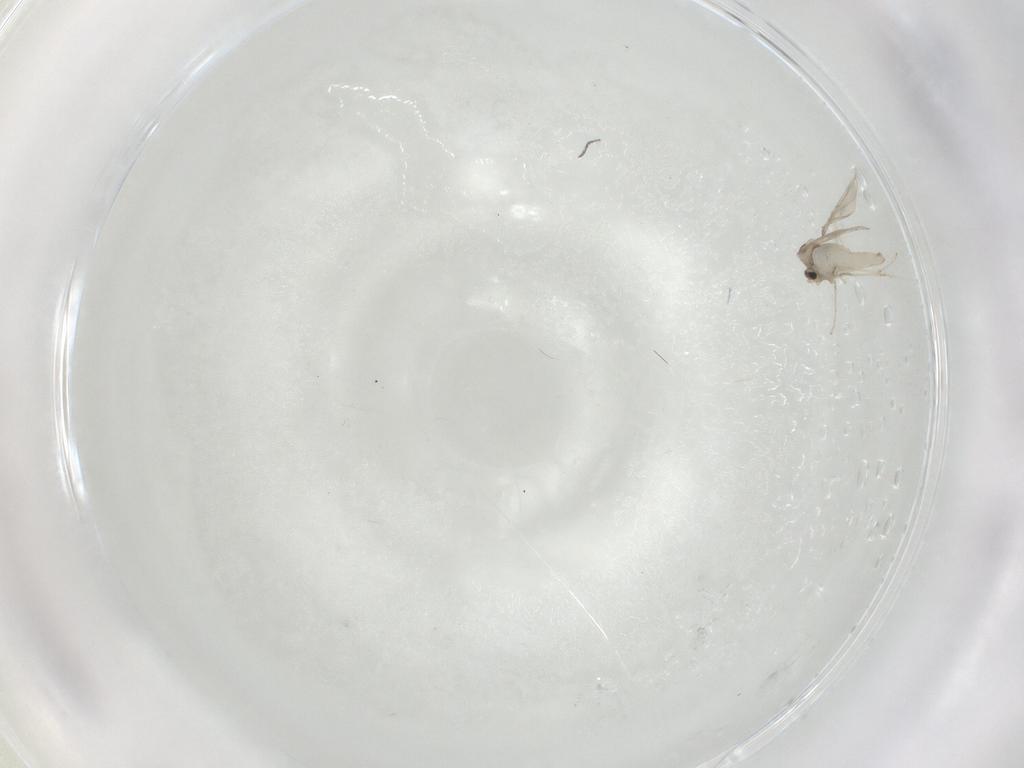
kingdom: Animalia
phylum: Arthropoda
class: Insecta
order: Diptera
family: Cecidomyiidae
